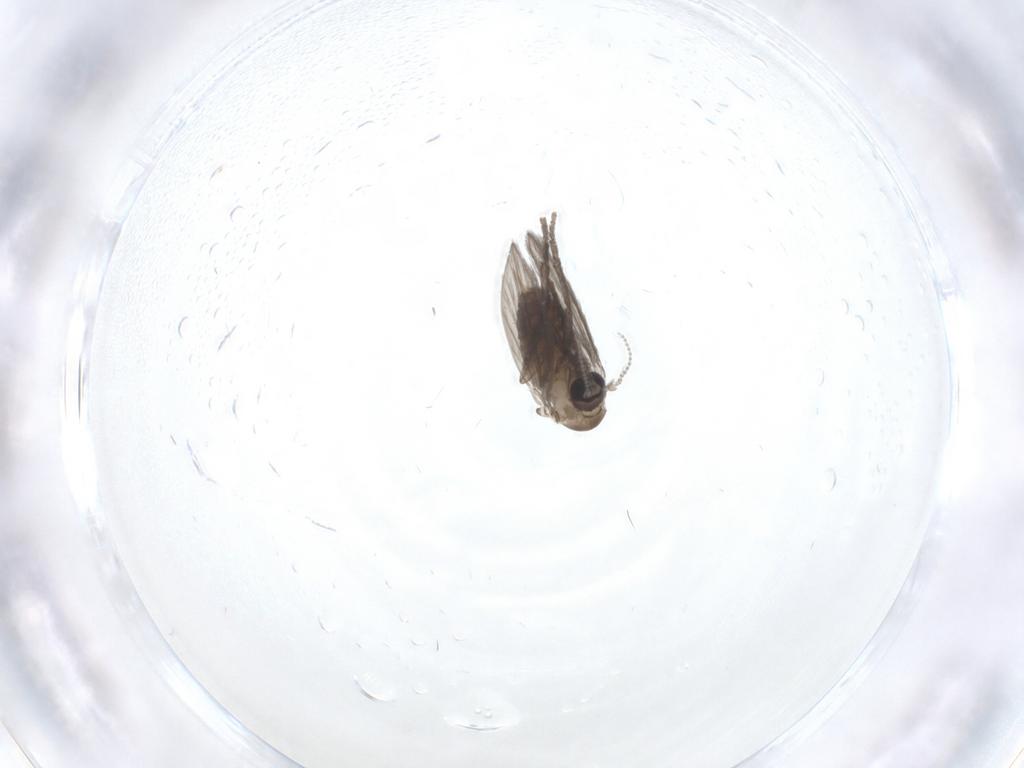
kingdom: Animalia
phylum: Arthropoda
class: Insecta
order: Diptera
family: Psychodidae
